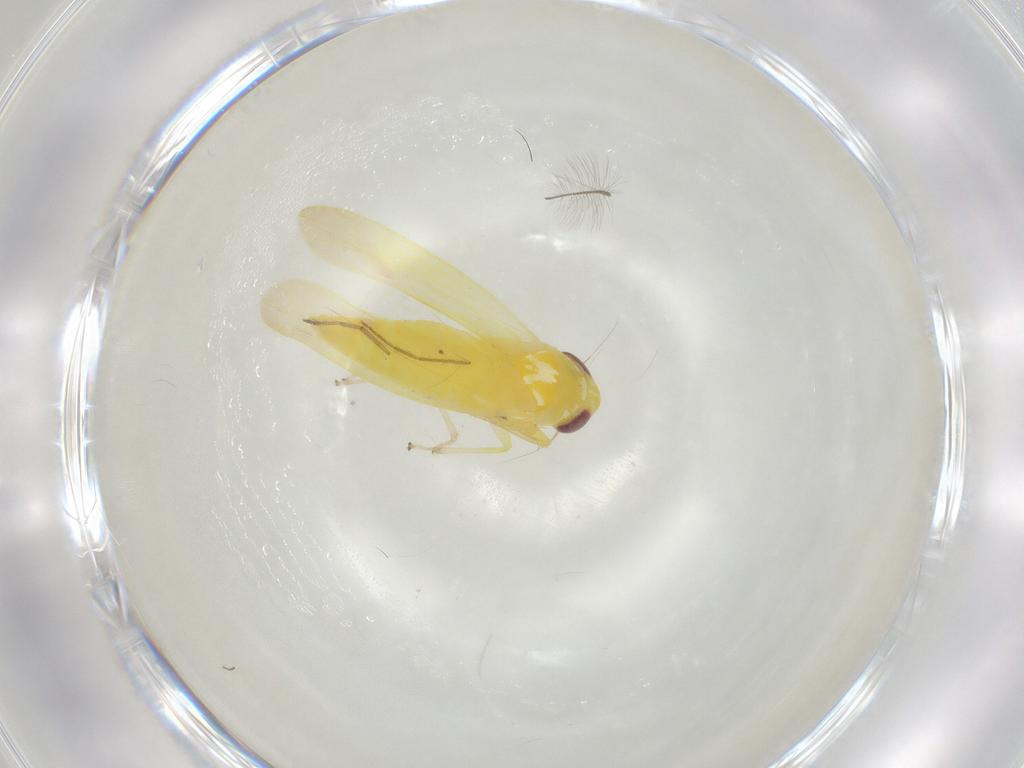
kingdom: Animalia
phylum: Arthropoda
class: Insecta
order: Hemiptera
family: Cicadellidae
